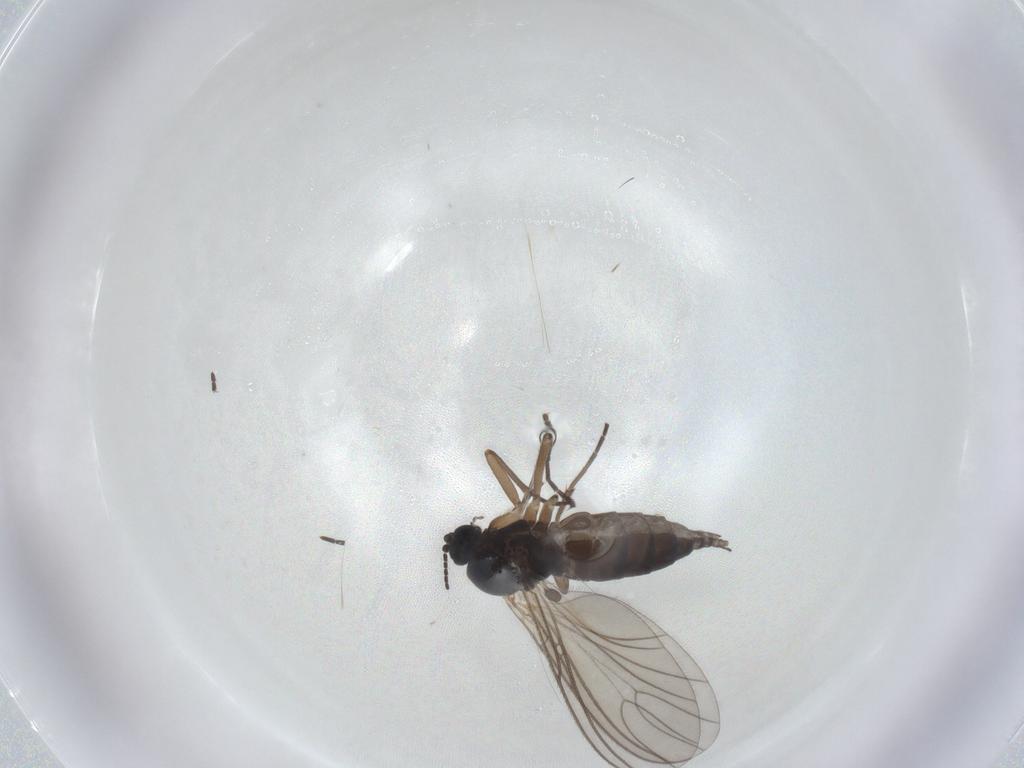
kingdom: Animalia
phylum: Arthropoda
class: Insecta
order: Diptera
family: Sciaridae
